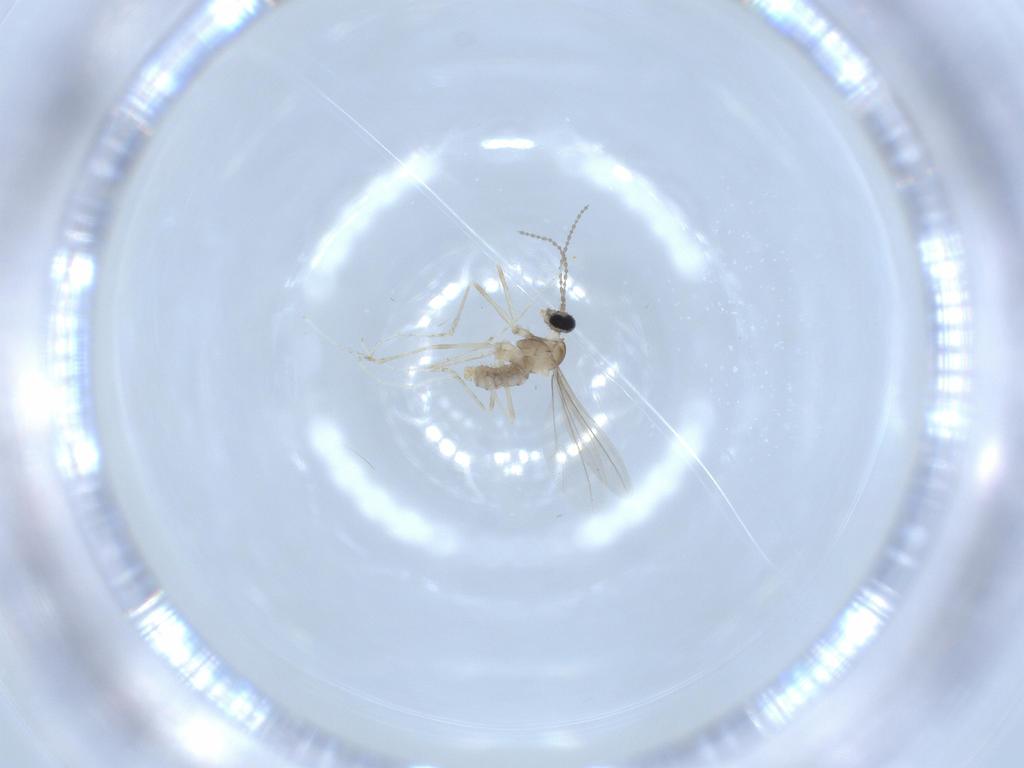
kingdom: Animalia
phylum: Arthropoda
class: Insecta
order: Diptera
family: Cecidomyiidae
